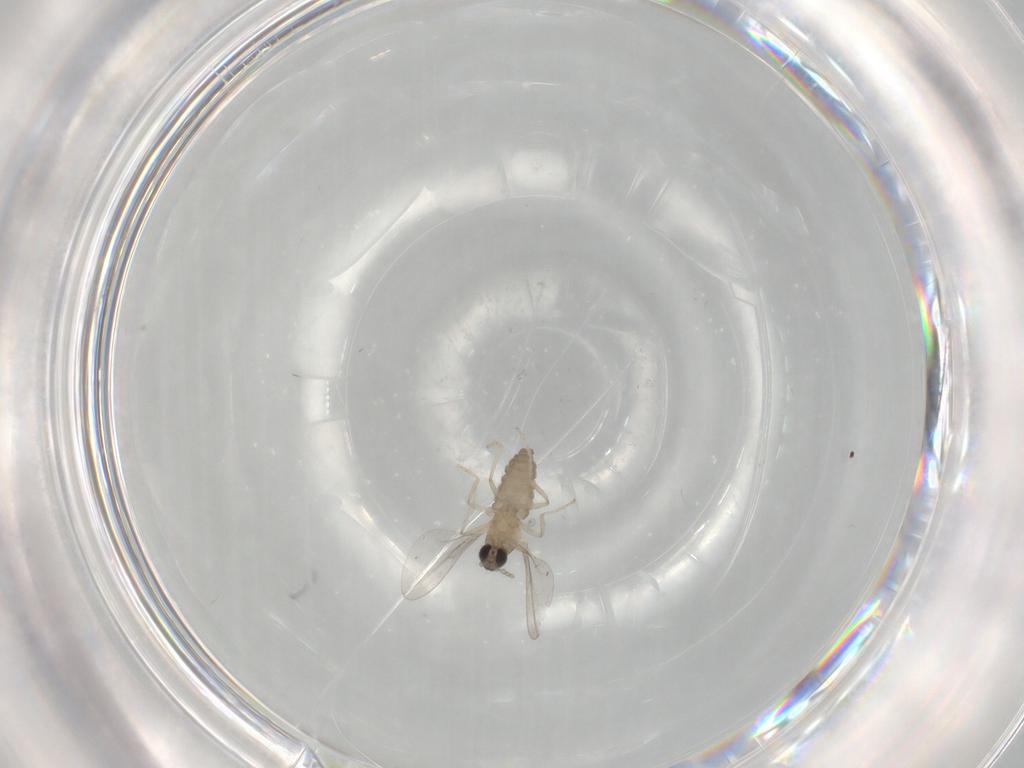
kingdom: Animalia
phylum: Arthropoda
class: Insecta
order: Diptera
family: Cecidomyiidae
